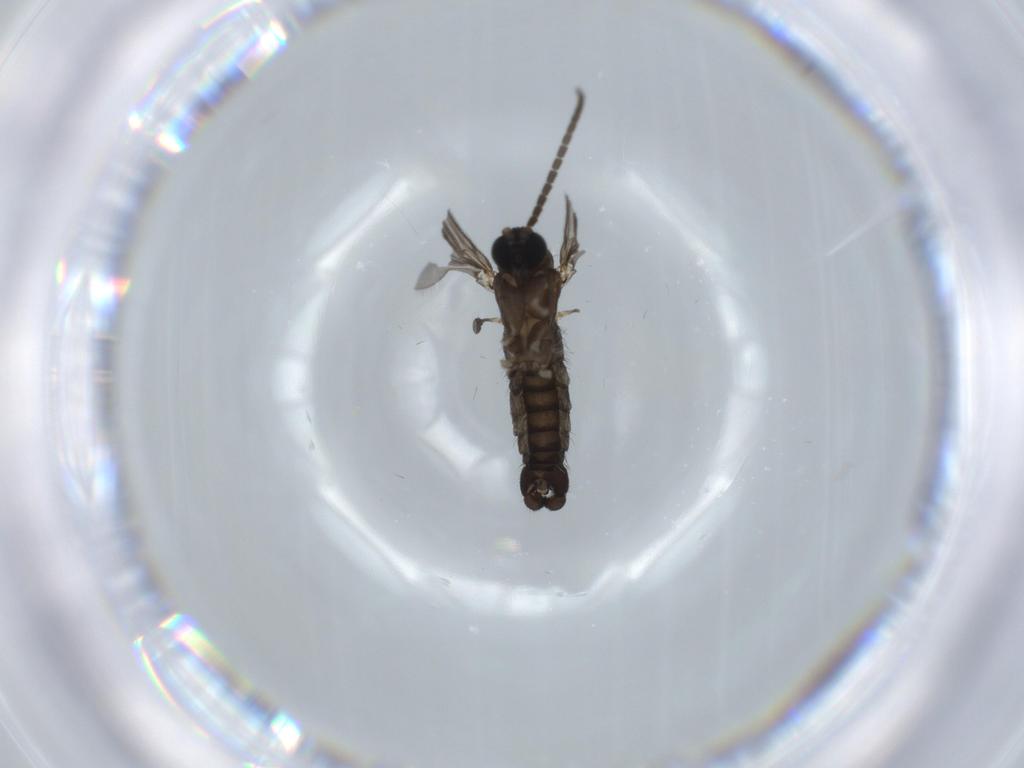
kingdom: Animalia
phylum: Arthropoda
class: Insecta
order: Diptera
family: Sciaridae
